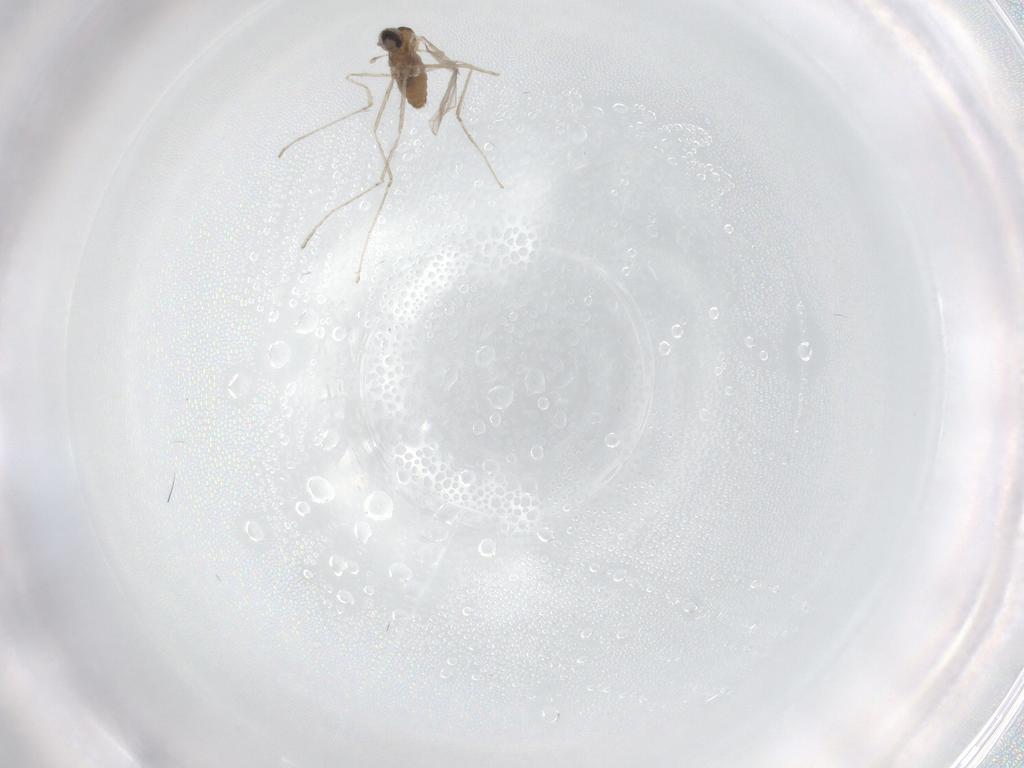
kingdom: Animalia
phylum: Arthropoda
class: Insecta
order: Diptera
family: Cecidomyiidae
